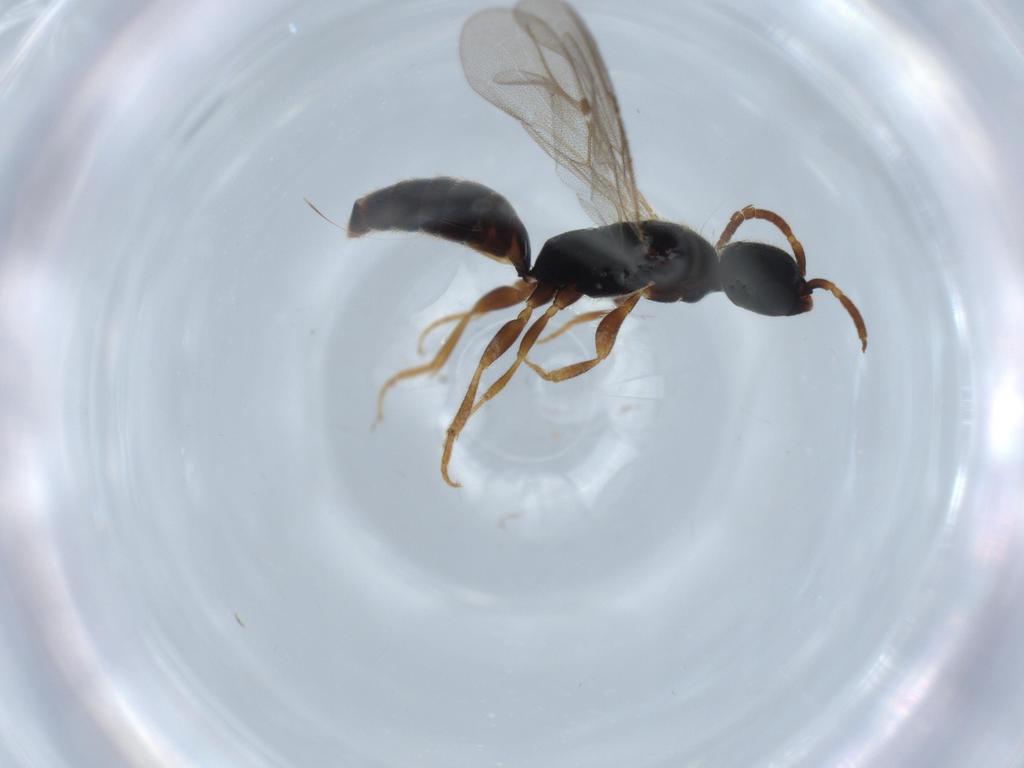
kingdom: Animalia
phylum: Arthropoda
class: Insecta
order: Hymenoptera
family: Bethylidae
